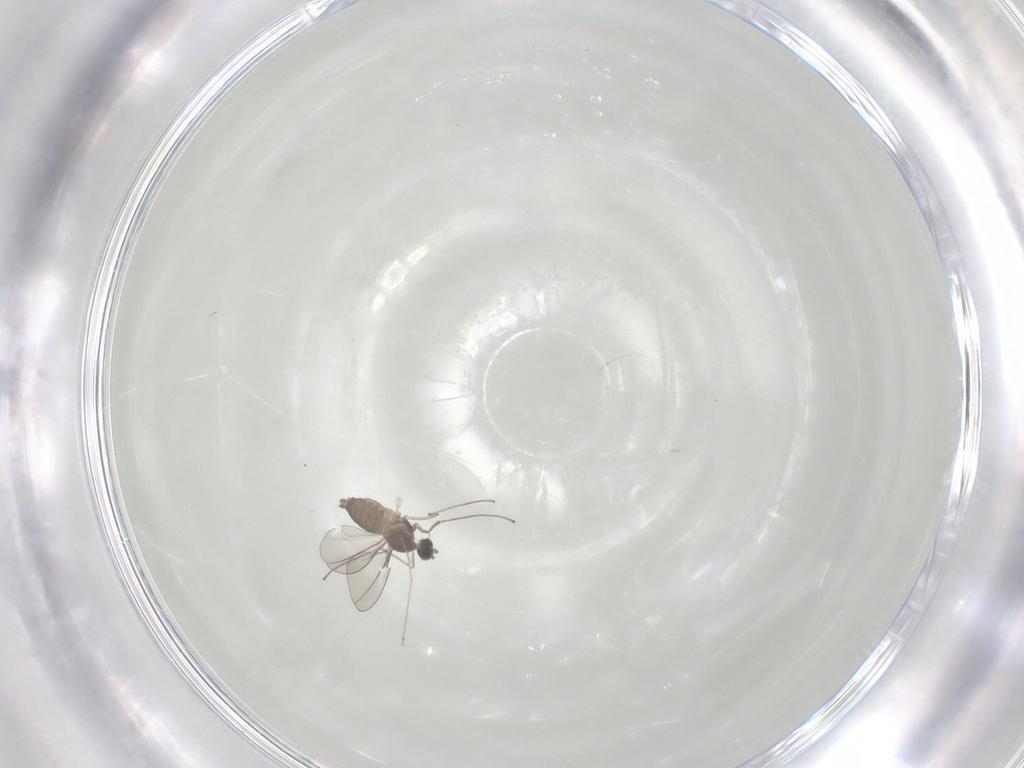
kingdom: Animalia
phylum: Arthropoda
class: Insecta
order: Diptera
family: Cecidomyiidae
